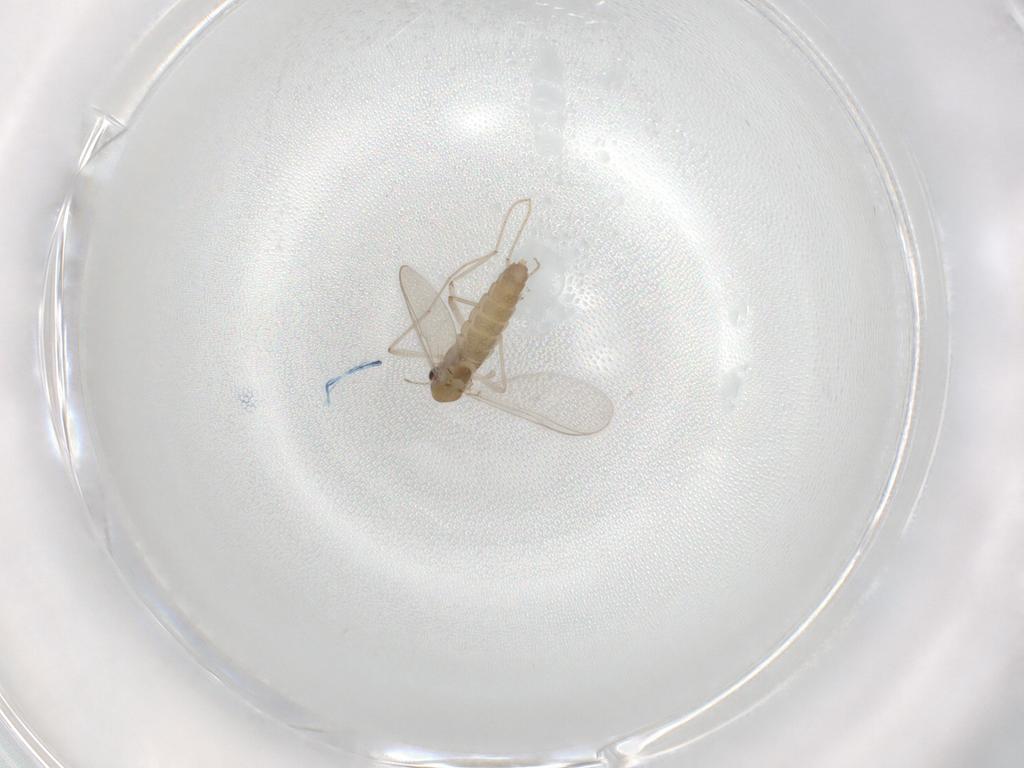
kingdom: Animalia
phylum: Arthropoda
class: Insecta
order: Diptera
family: Chironomidae
